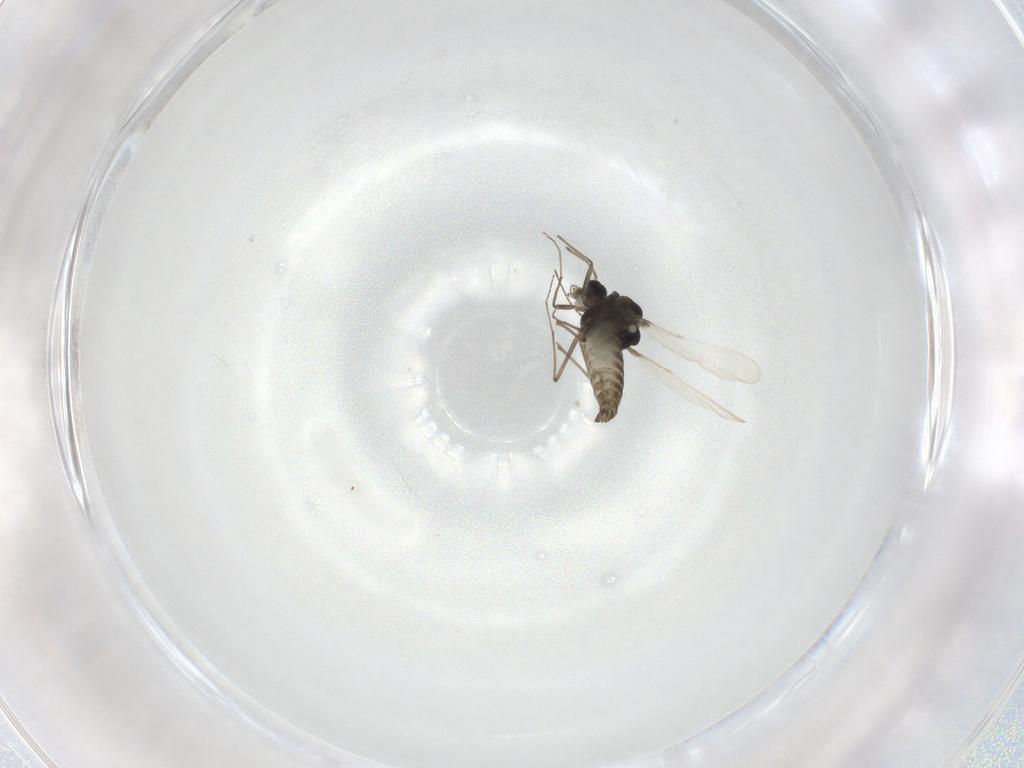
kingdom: Animalia
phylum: Arthropoda
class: Insecta
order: Diptera
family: Chironomidae
